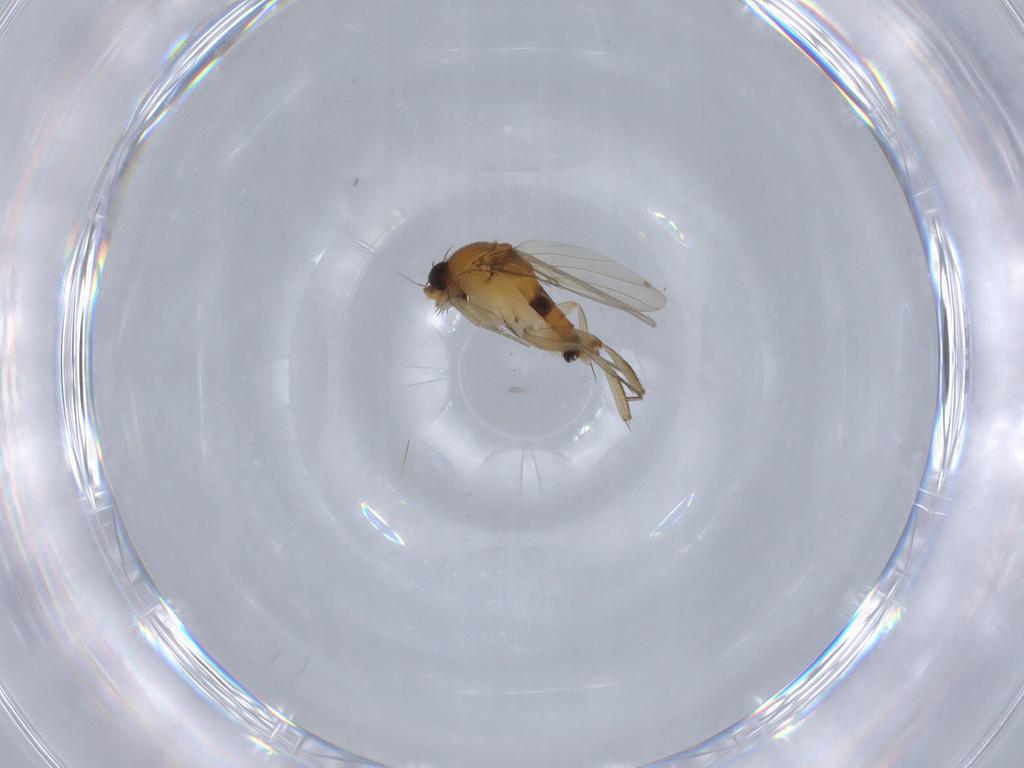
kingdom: Animalia
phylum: Arthropoda
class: Insecta
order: Diptera
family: Phoridae
